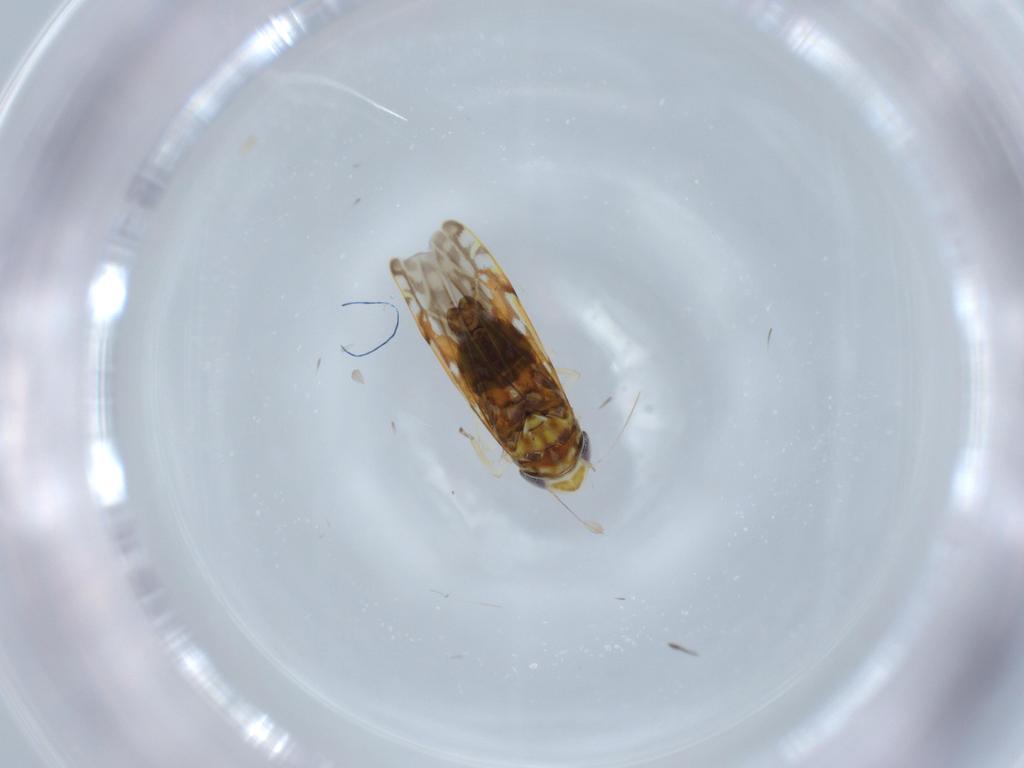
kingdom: Animalia
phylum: Arthropoda
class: Insecta
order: Hemiptera
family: Cicadellidae
